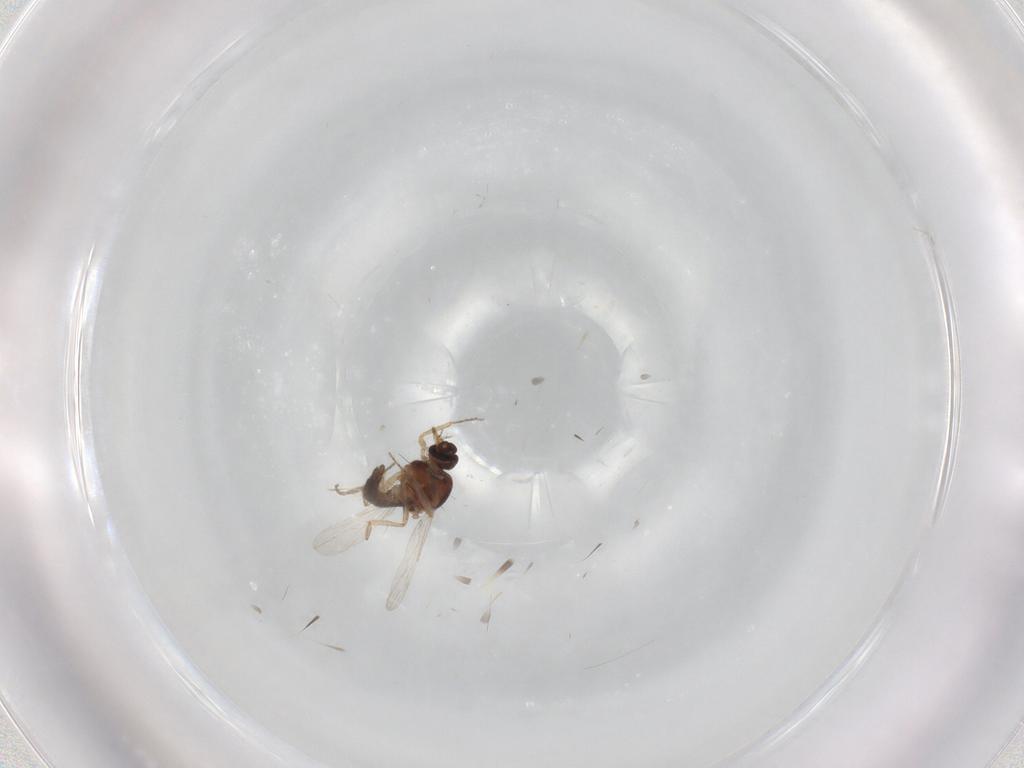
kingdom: Animalia
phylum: Arthropoda
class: Insecta
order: Diptera
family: Ceratopogonidae
